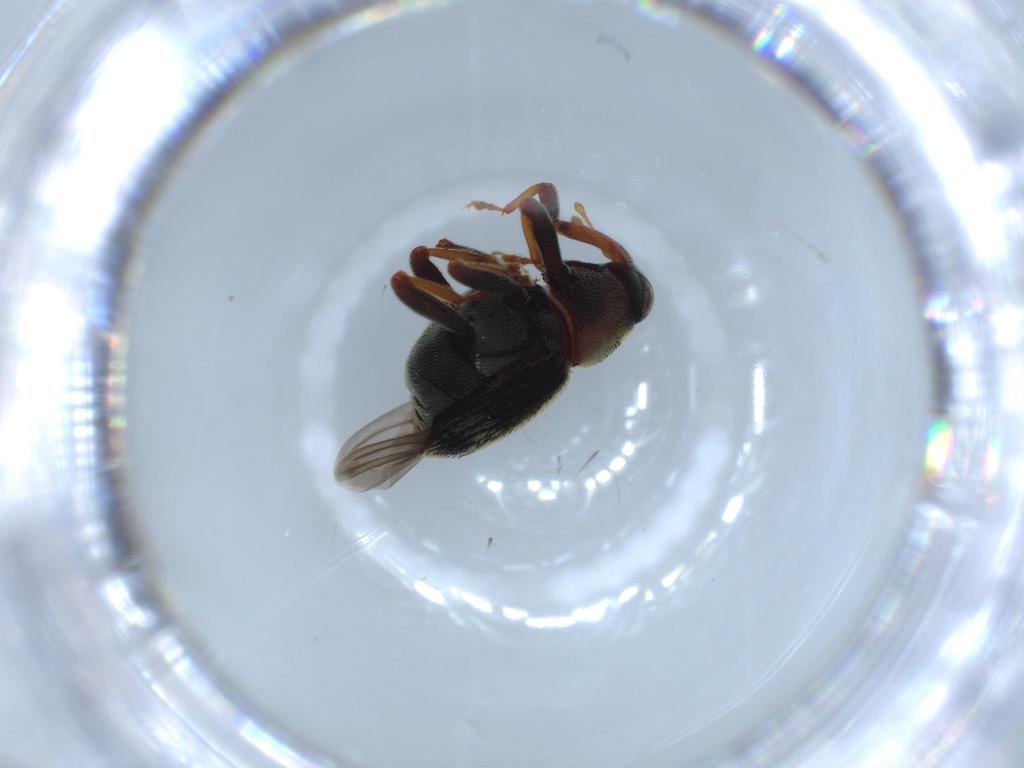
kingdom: Animalia
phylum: Arthropoda
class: Insecta
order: Coleoptera
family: Curculionidae
